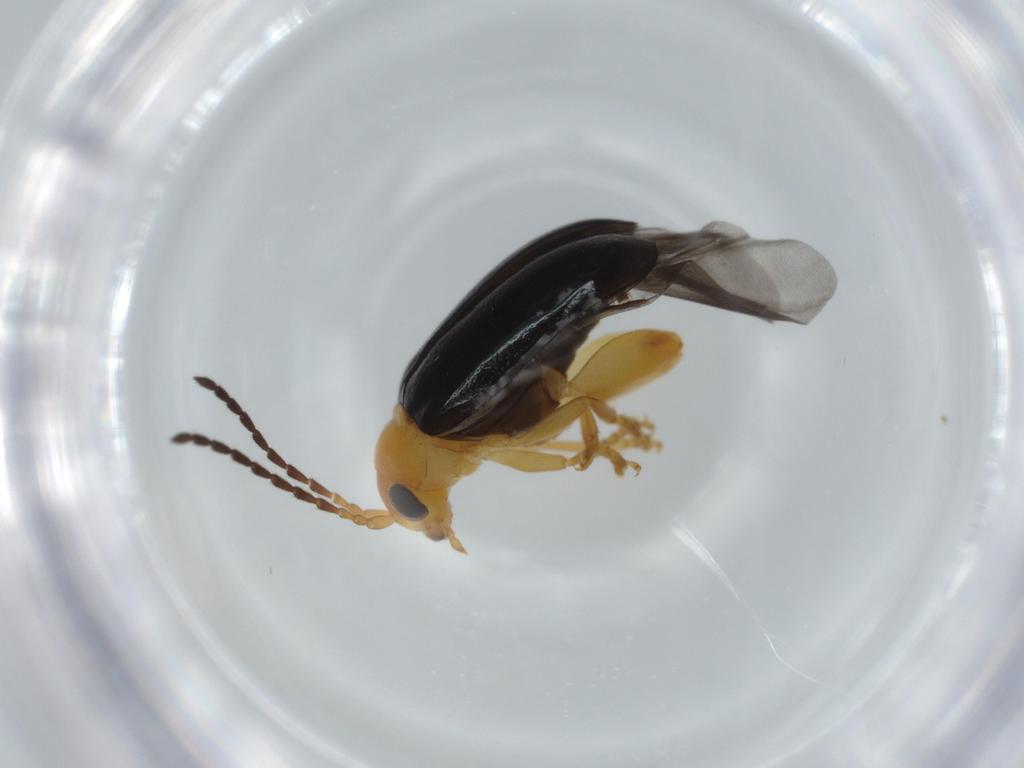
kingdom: Animalia
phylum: Arthropoda
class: Insecta
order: Coleoptera
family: Chrysomelidae
